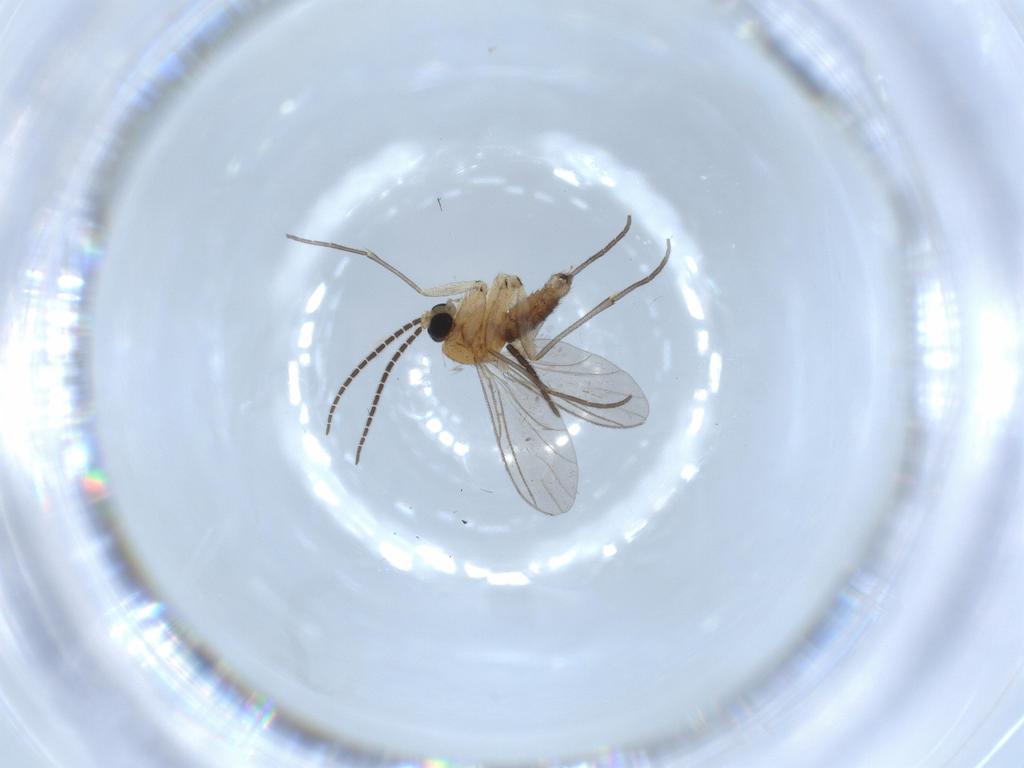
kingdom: Animalia
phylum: Arthropoda
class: Insecta
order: Diptera
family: Sciaridae
